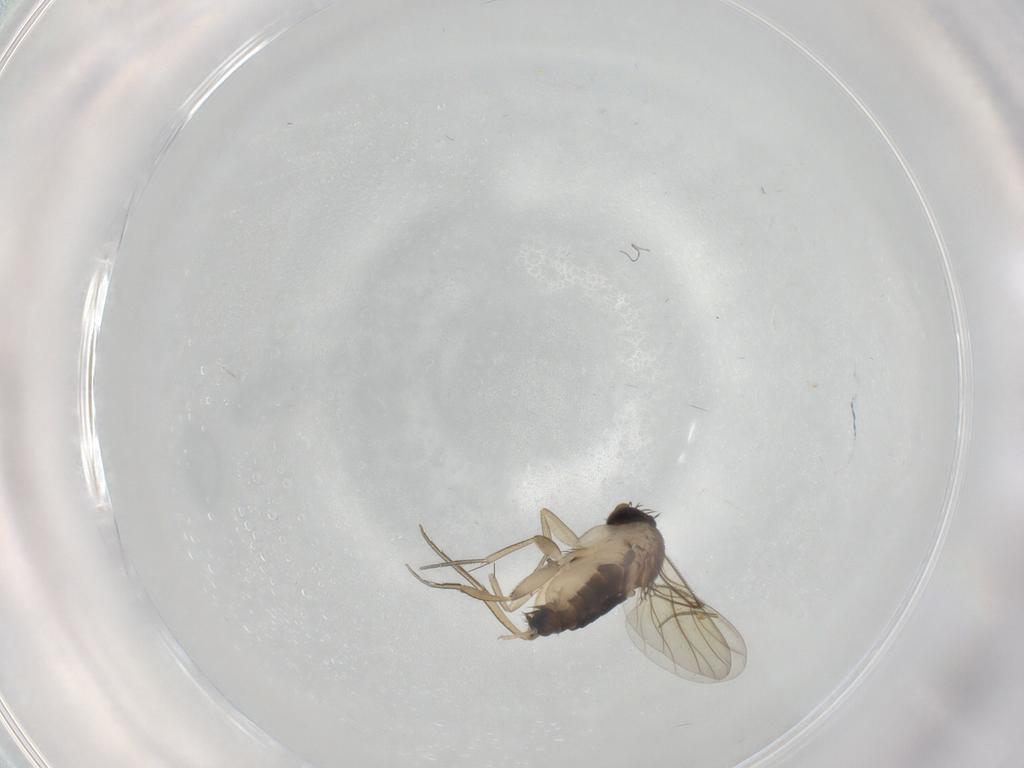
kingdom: Animalia
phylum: Arthropoda
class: Insecta
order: Diptera
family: Phoridae
